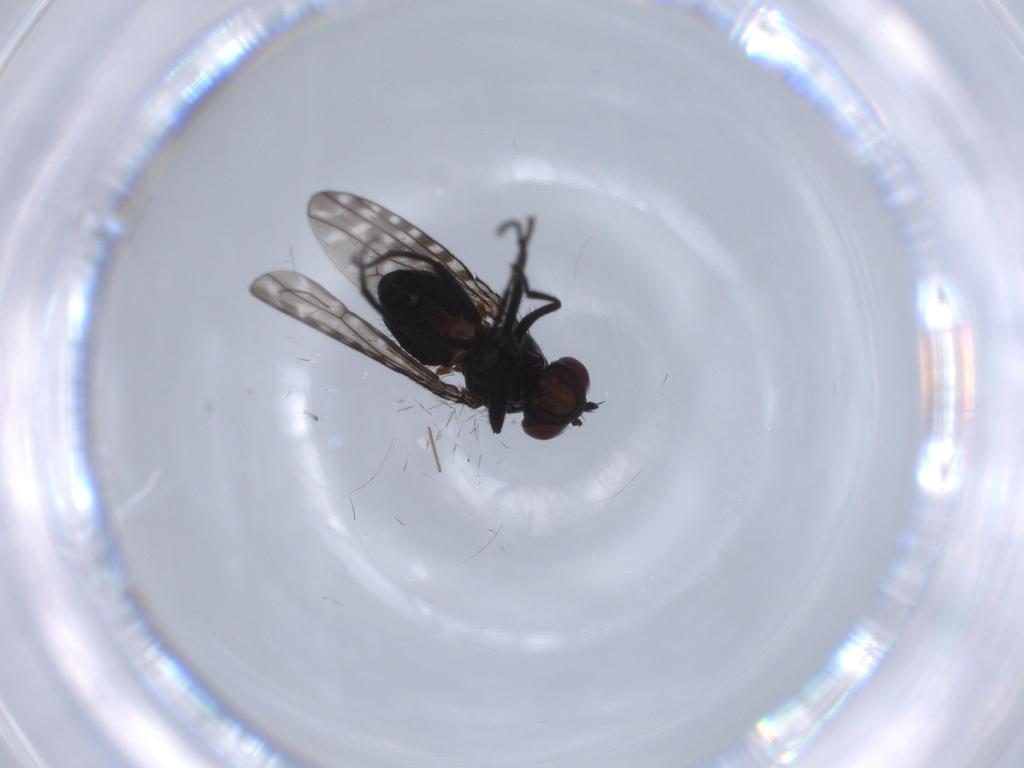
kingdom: Animalia
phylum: Arthropoda
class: Insecta
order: Diptera
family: Ephydridae
